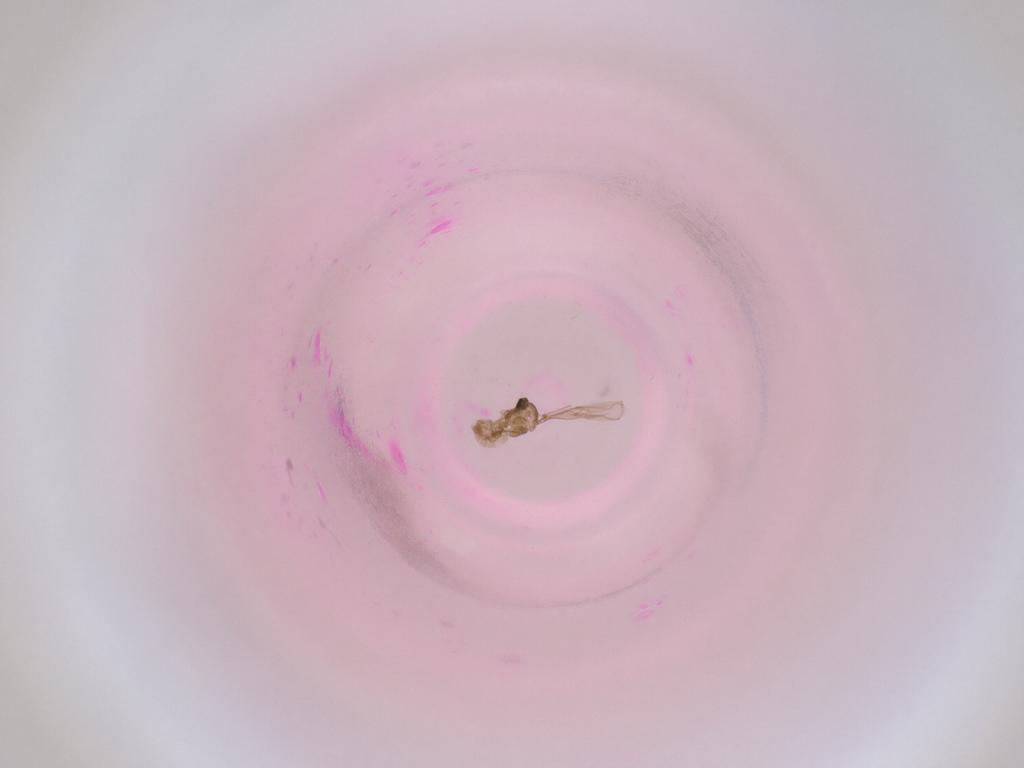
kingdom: Animalia
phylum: Arthropoda
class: Insecta
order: Diptera
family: Cecidomyiidae
